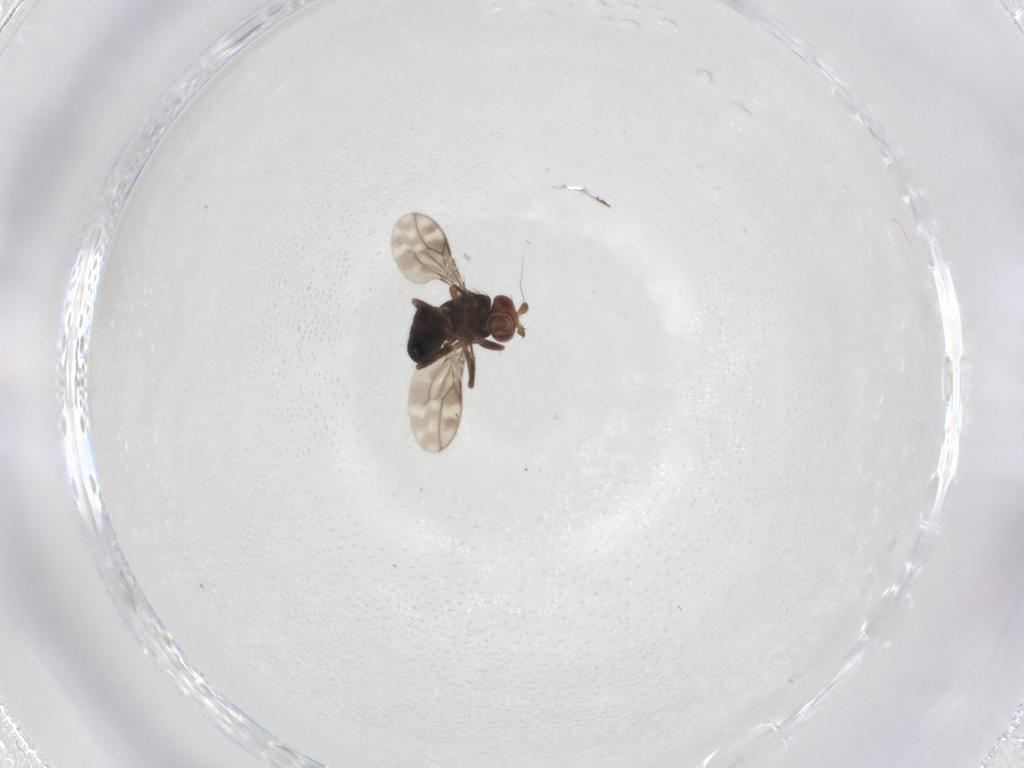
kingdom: Animalia
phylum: Arthropoda
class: Insecta
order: Diptera
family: Sphaeroceridae
